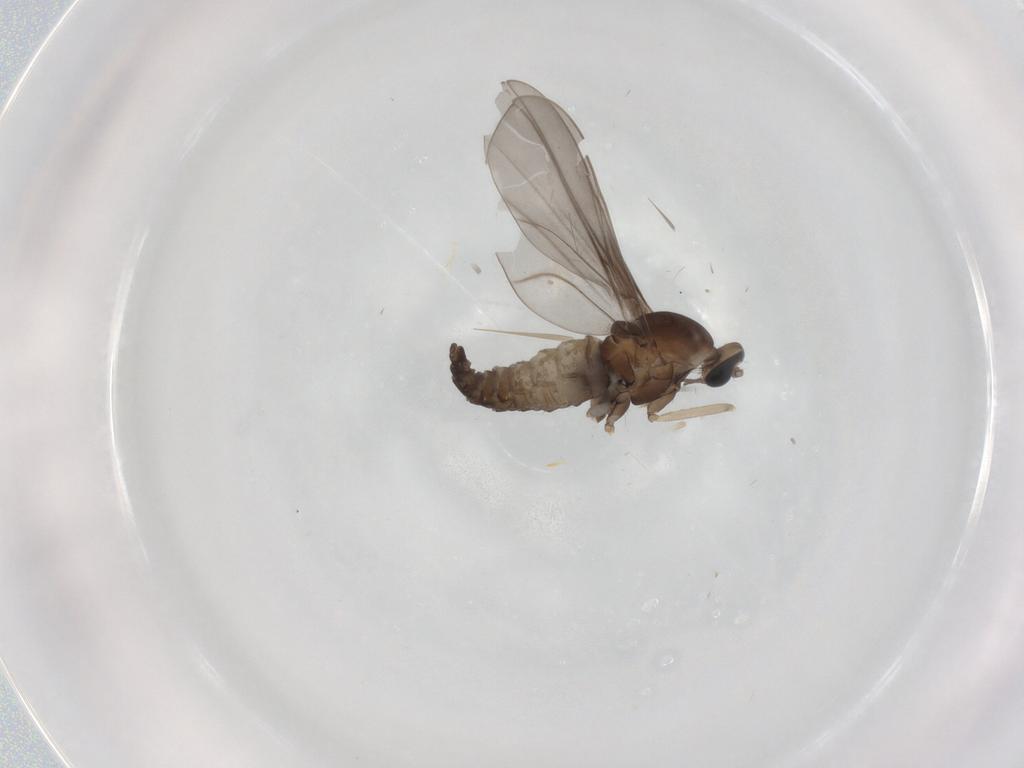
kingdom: Animalia
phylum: Arthropoda
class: Insecta
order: Diptera
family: Cecidomyiidae
